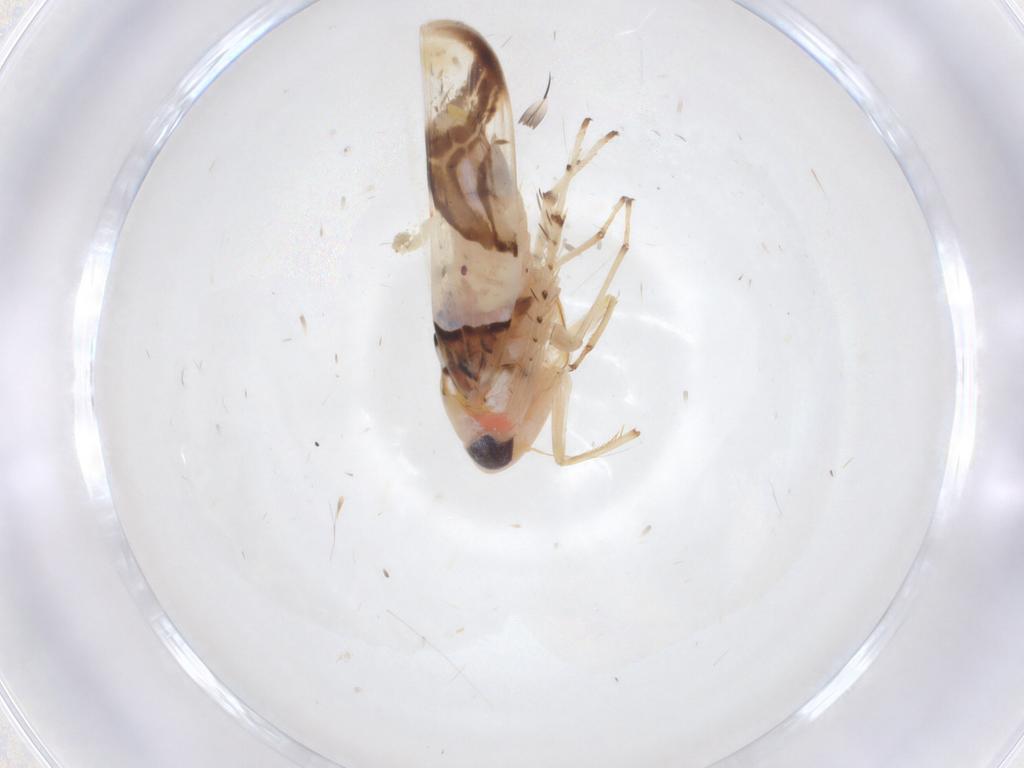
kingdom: Animalia
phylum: Arthropoda
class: Insecta
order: Hemiptera
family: Cicadellidae
